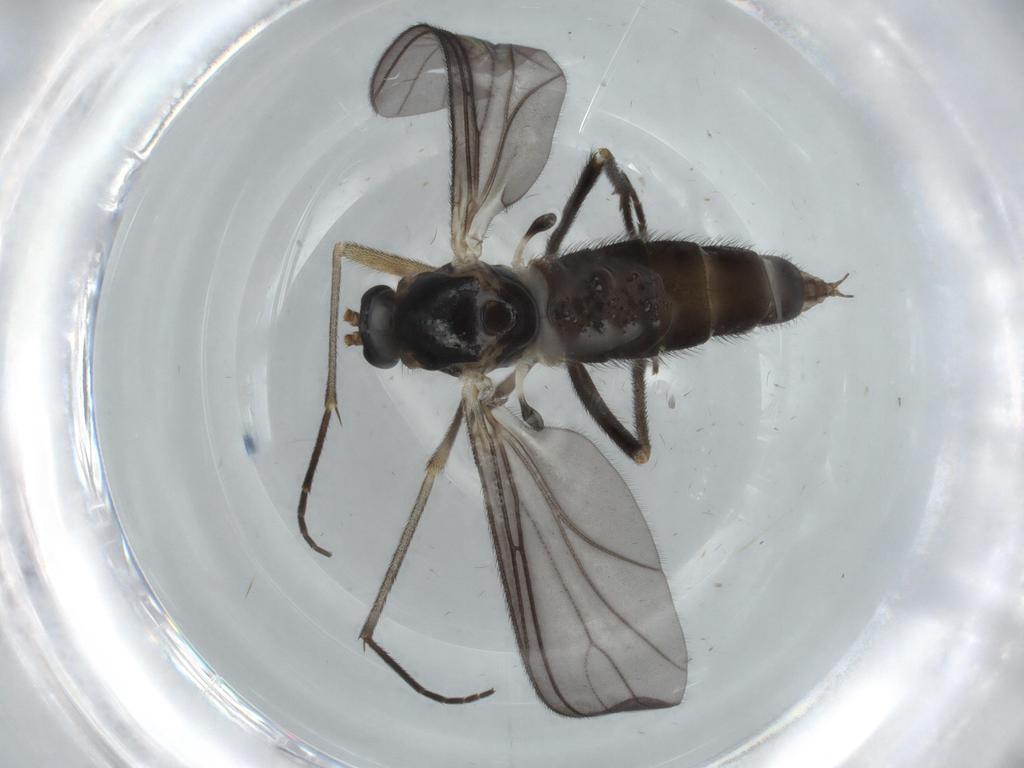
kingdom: Animalia
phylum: Arthropoda
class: Insecta
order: Diptera
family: Sciaridae
